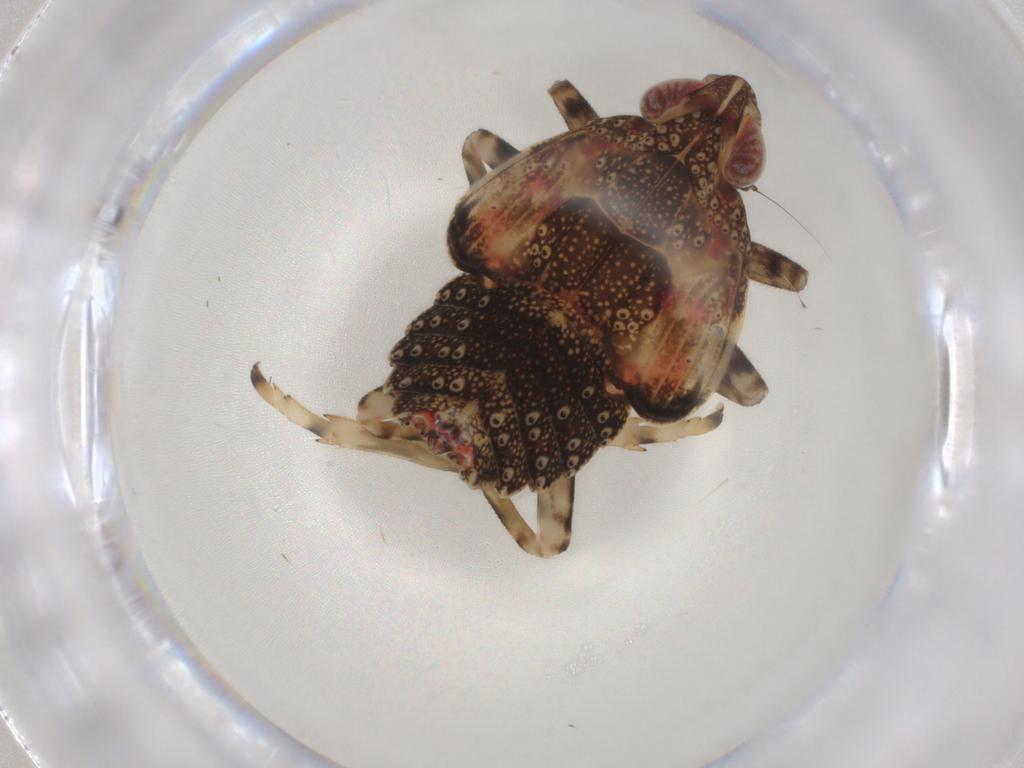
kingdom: Animalia
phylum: Arthropoda
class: Insecta
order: Hemiptera
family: Tropiduchidae
